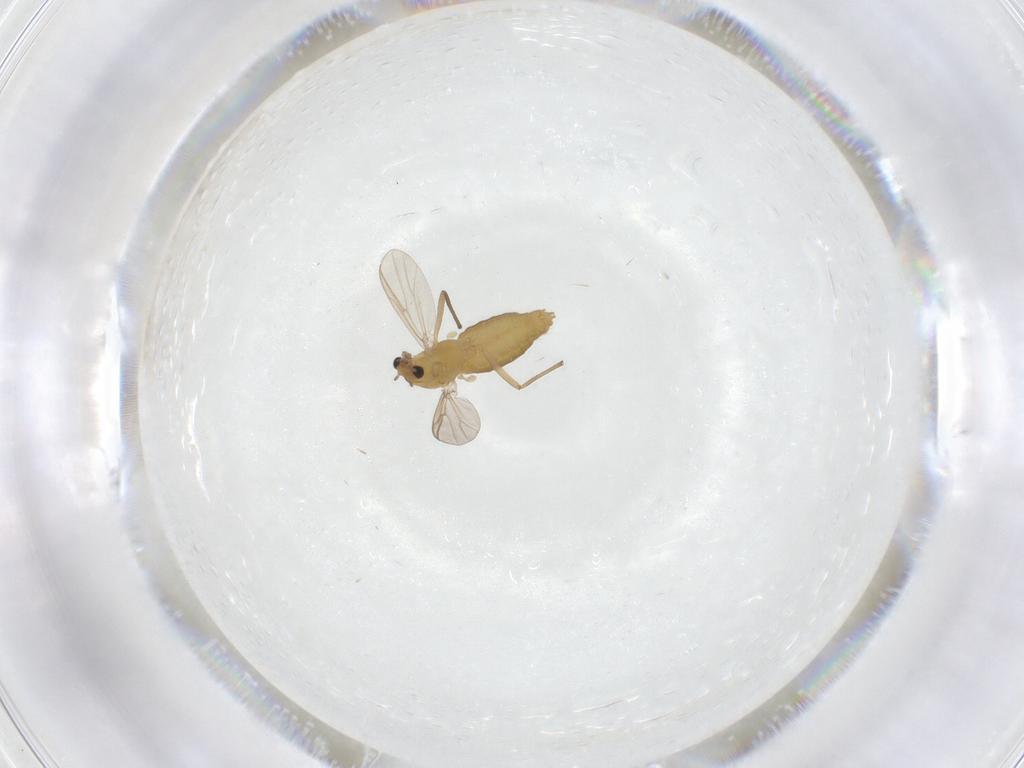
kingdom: Animalia
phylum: Arthropoda
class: Insecta
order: Diptera
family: Chironomidae
